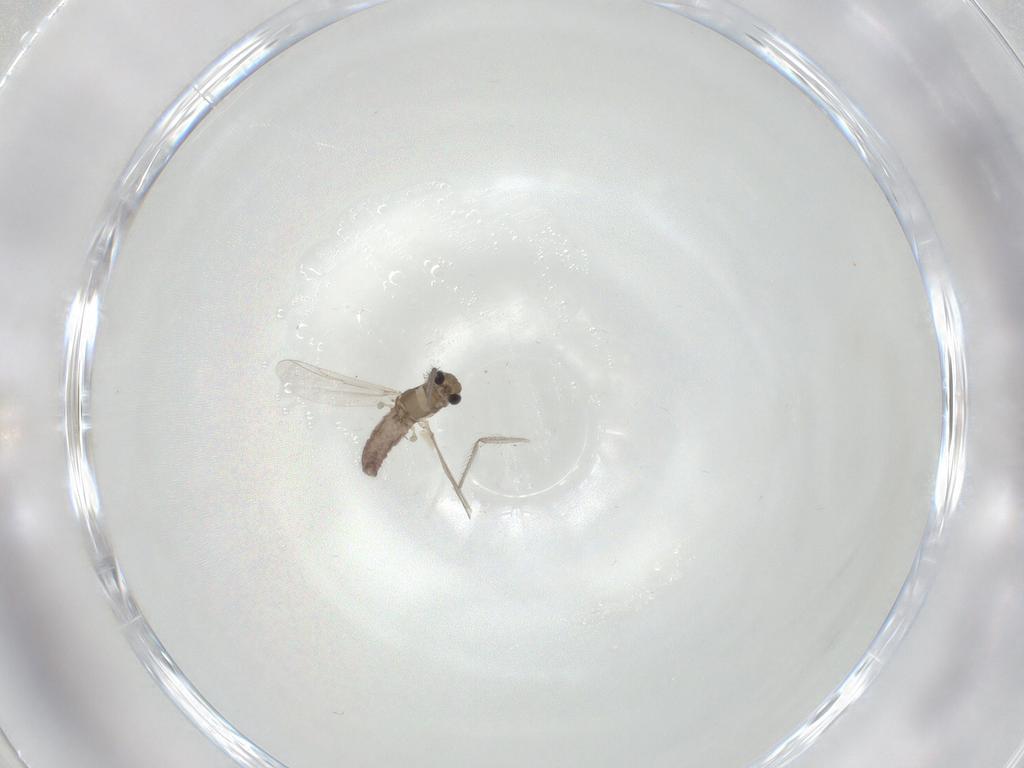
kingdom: Animalia
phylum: Arthropoda
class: Insecta
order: Diptera
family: Chironomidae
